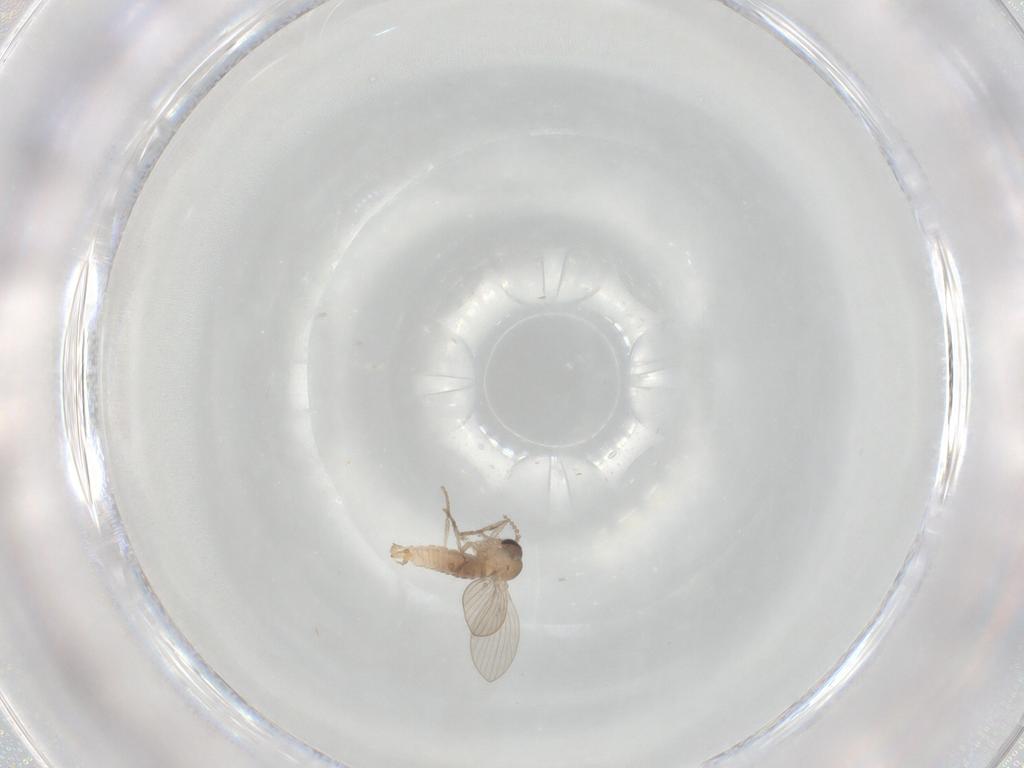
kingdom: Animalia
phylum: Arthropoda
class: Insecta
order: Diptera
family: Psychodidae
